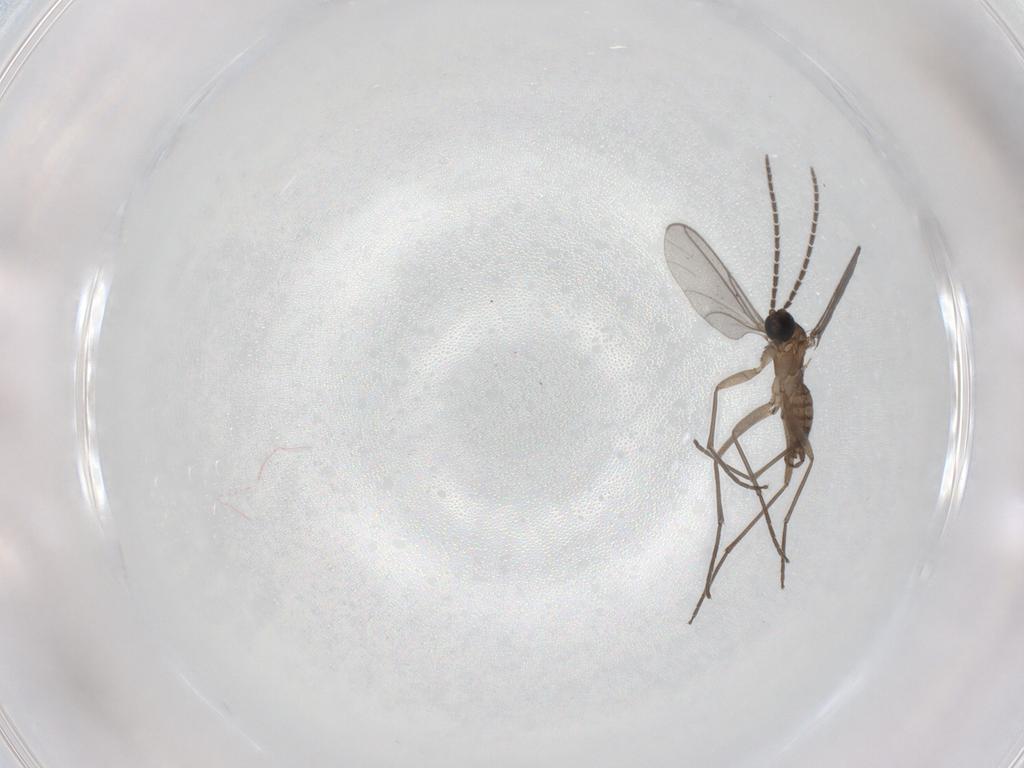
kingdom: Animalia
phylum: Arthropoda
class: Insecta
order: Diptera
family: Sciaridae
